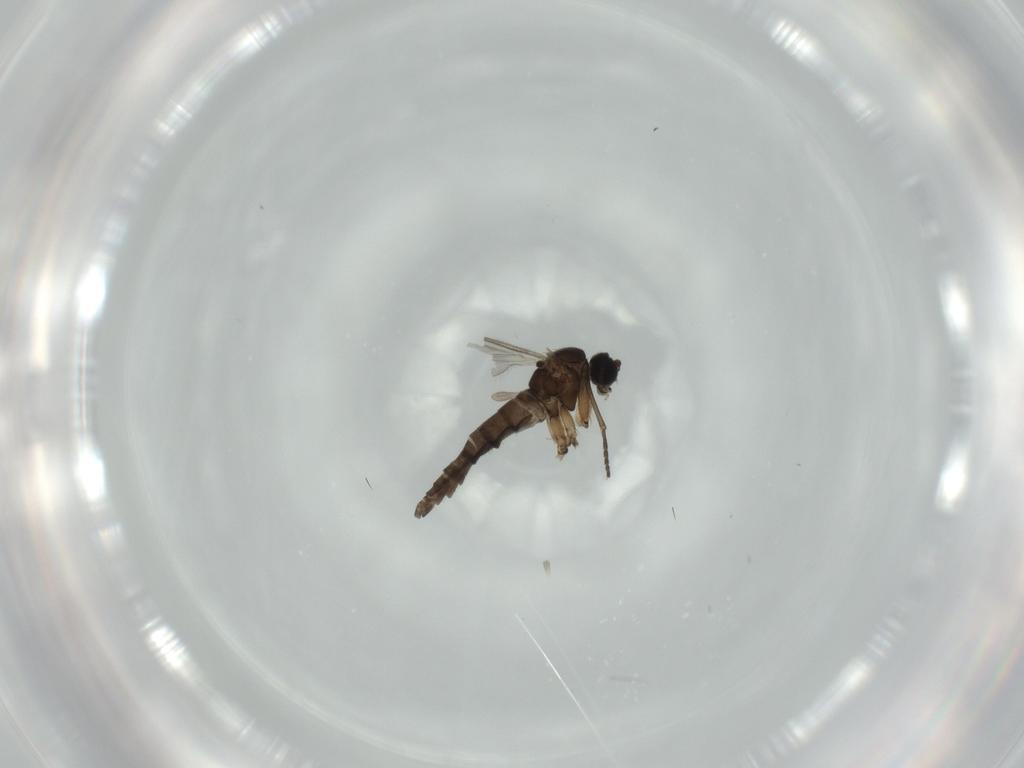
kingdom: Animalia
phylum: Arthropoda
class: Insecta
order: Diptera
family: Sciaridae
